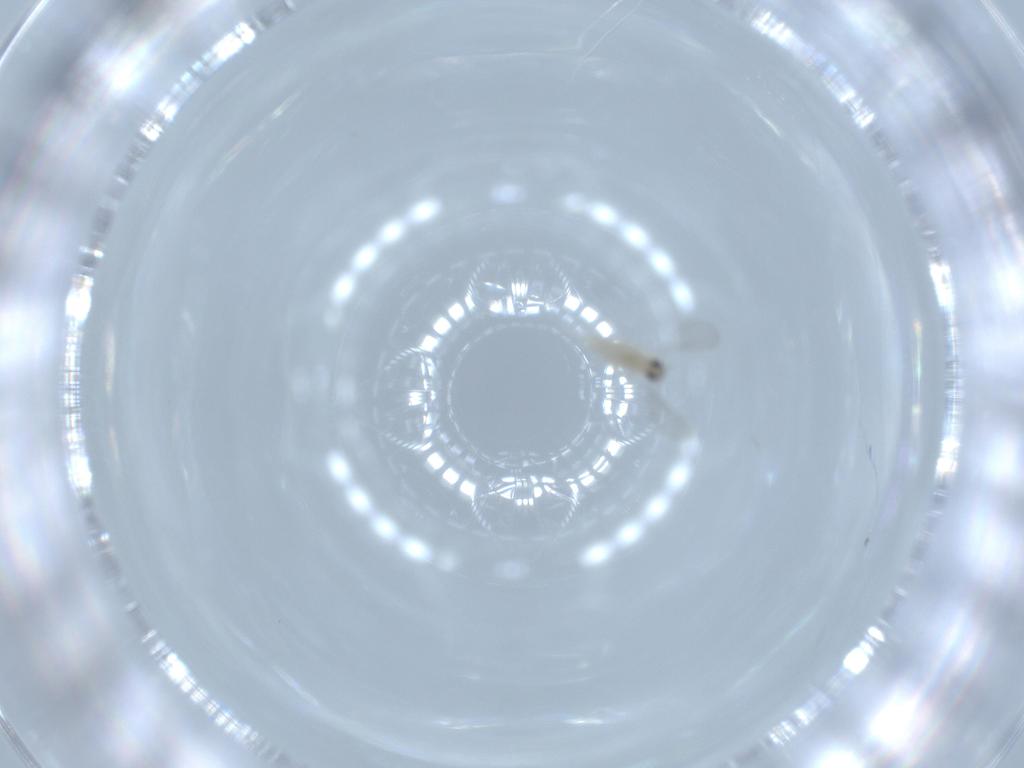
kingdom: Animalia
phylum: Arthropoda
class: Insecta
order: Diptera
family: Cecidomyiidae
